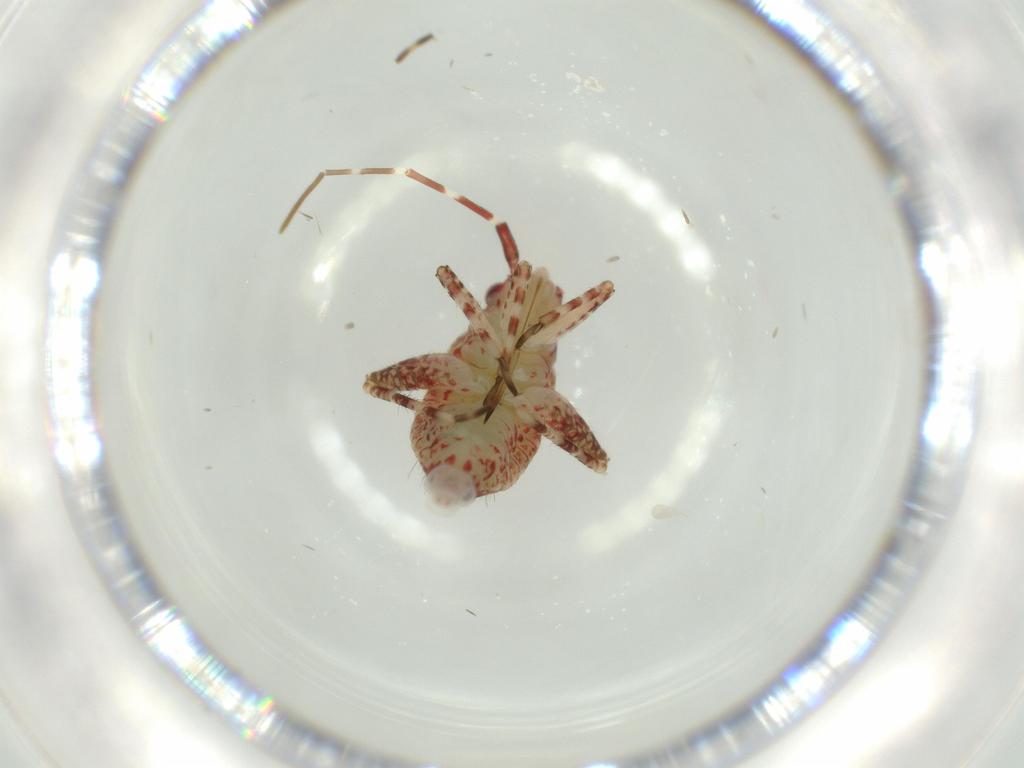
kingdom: Animalia
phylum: Arthropoda
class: Insecta
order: Hemiptera
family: Miridae
